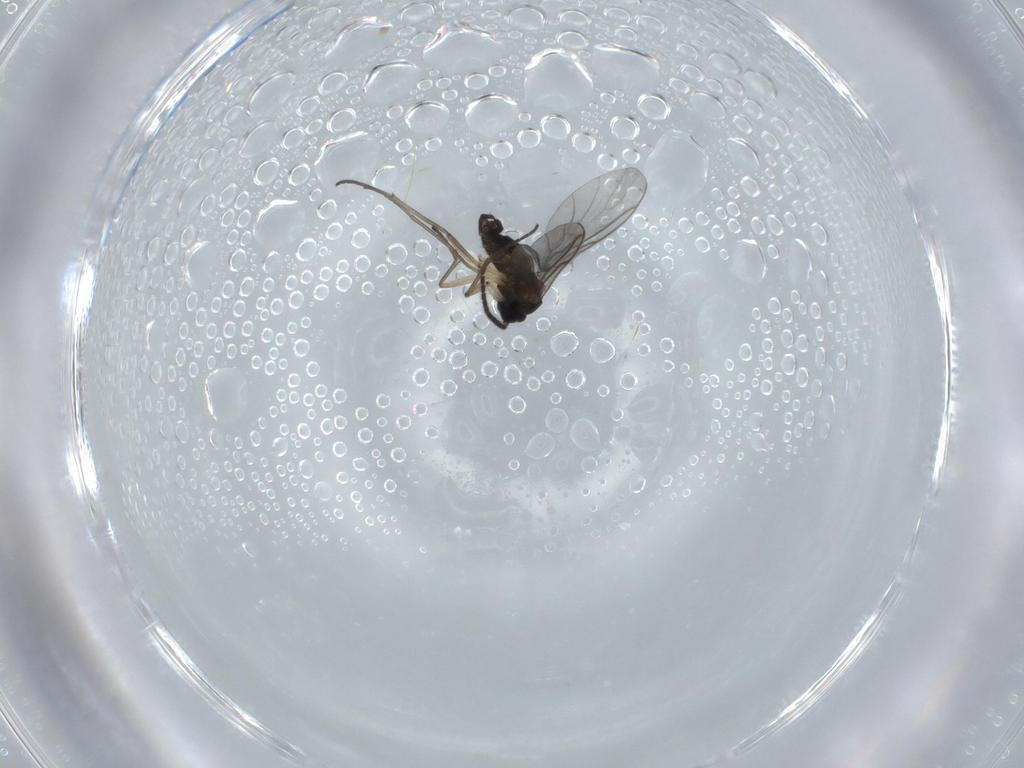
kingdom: Animalia
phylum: Arthropoda
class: Insecta
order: Diptera
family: Sciaridae
